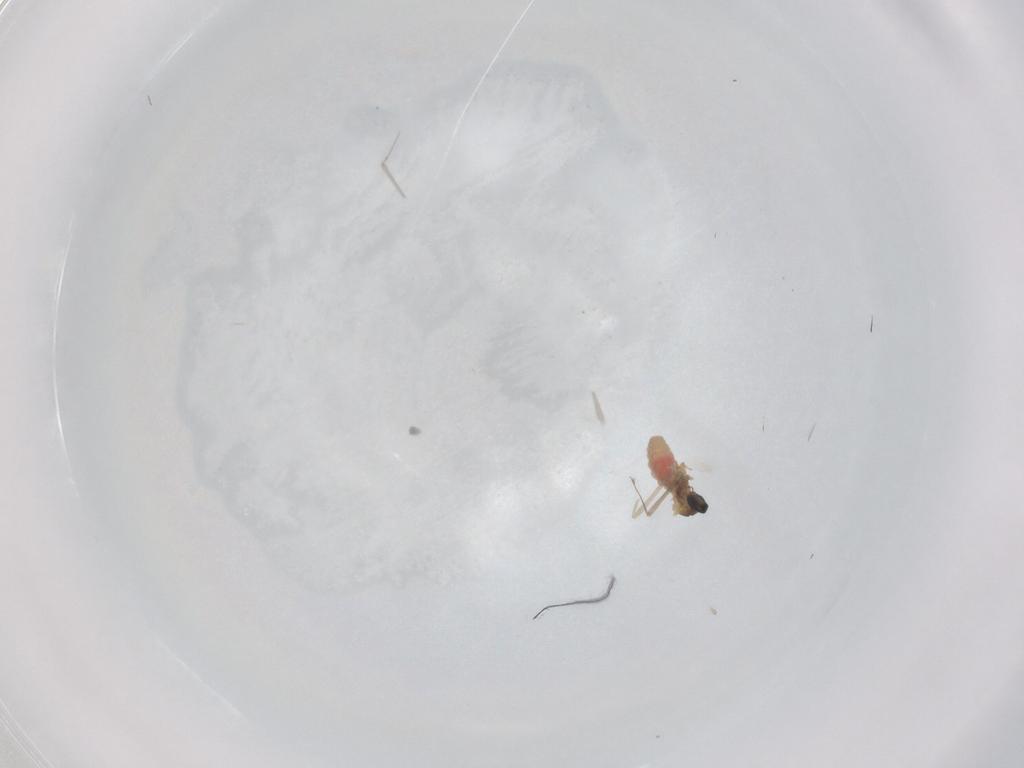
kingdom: Animalia
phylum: Arthropoda
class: Insecta
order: Diptera
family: Cecidomyiidae
